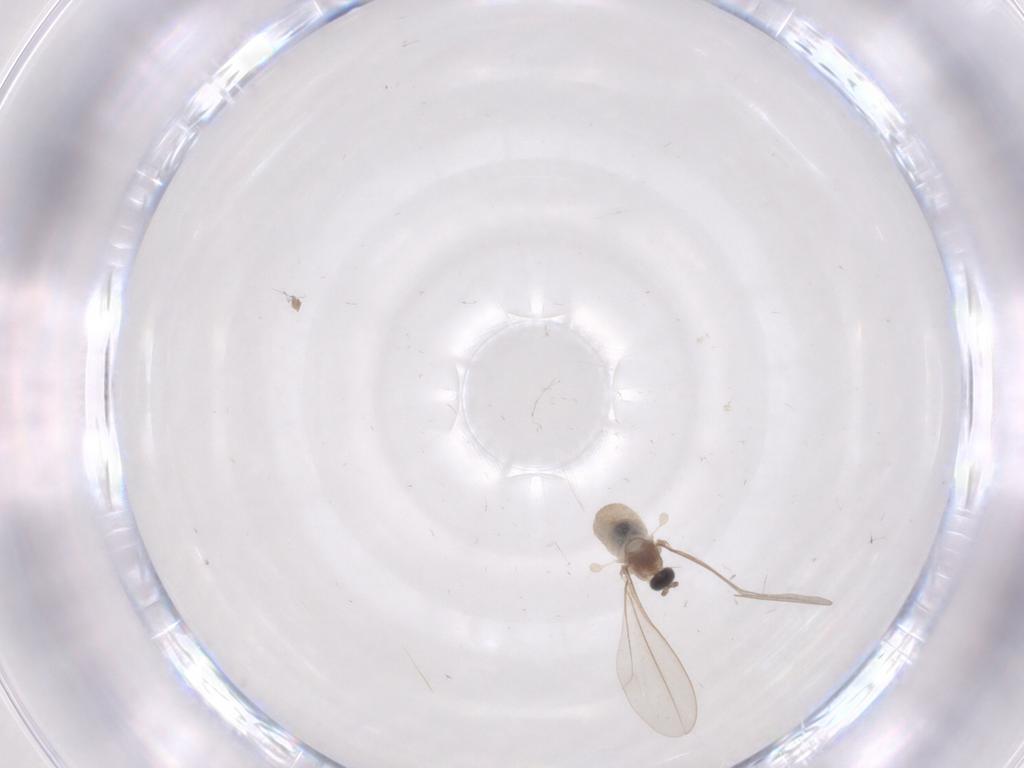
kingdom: Animalia
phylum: Arthropoda
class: Insecta
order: Diptera
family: Cecidomyiidae
